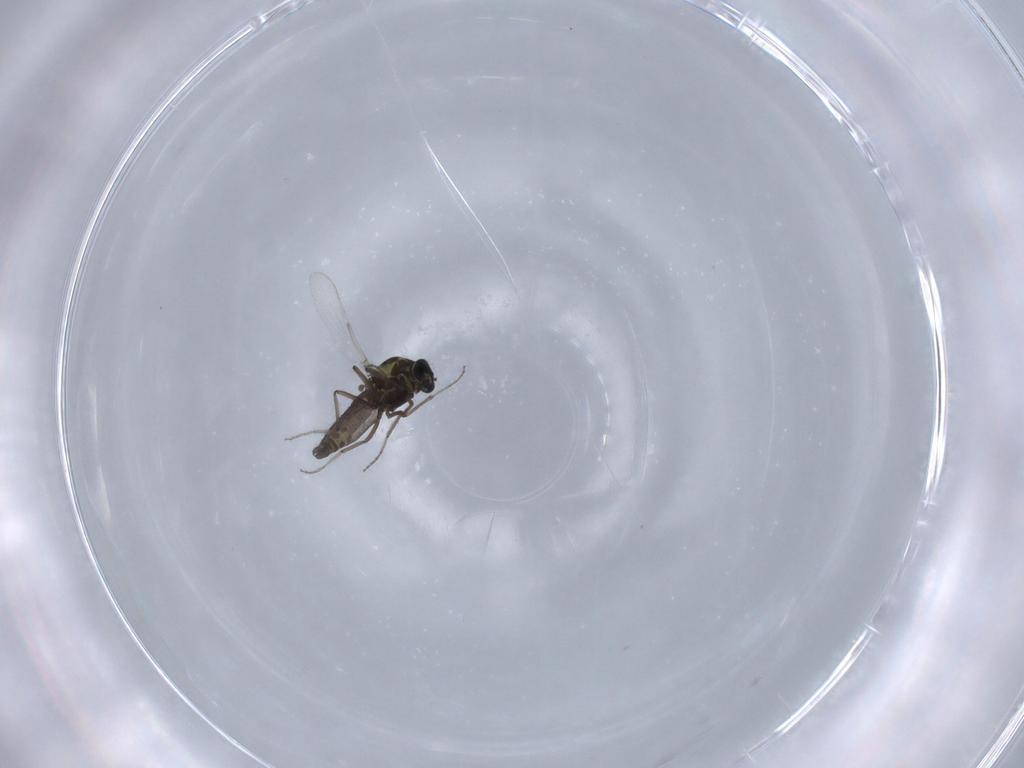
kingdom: Animalia
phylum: Arthropoda
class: Insecta
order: Diptera
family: Ceratopogonidae
